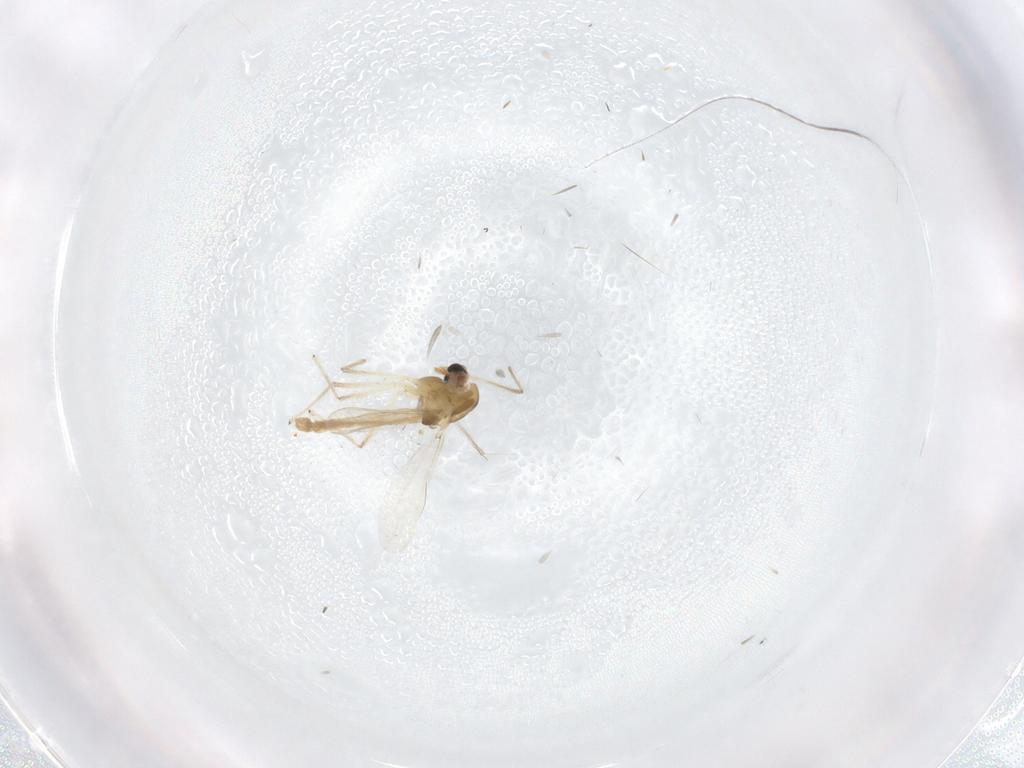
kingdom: Animalia
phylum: Arthropoda
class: Insecta
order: Diptera
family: Chironomidae
